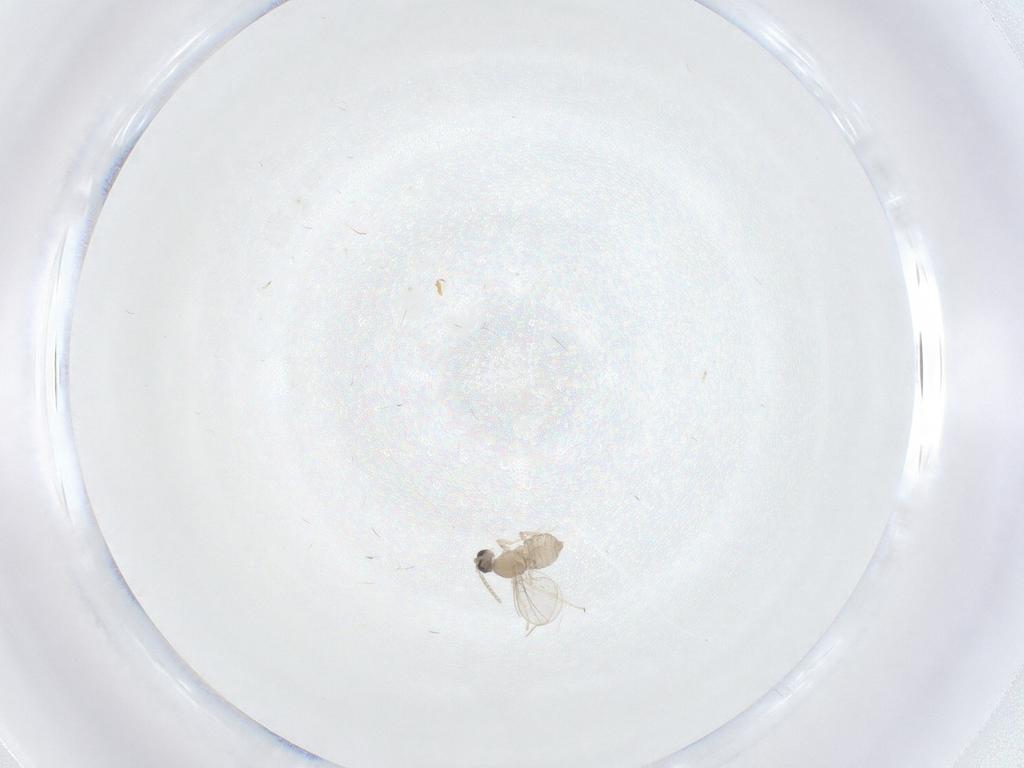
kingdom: Animalia
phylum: Arthropoda
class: Insecta
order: Diptera
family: Cecidomyiidae
